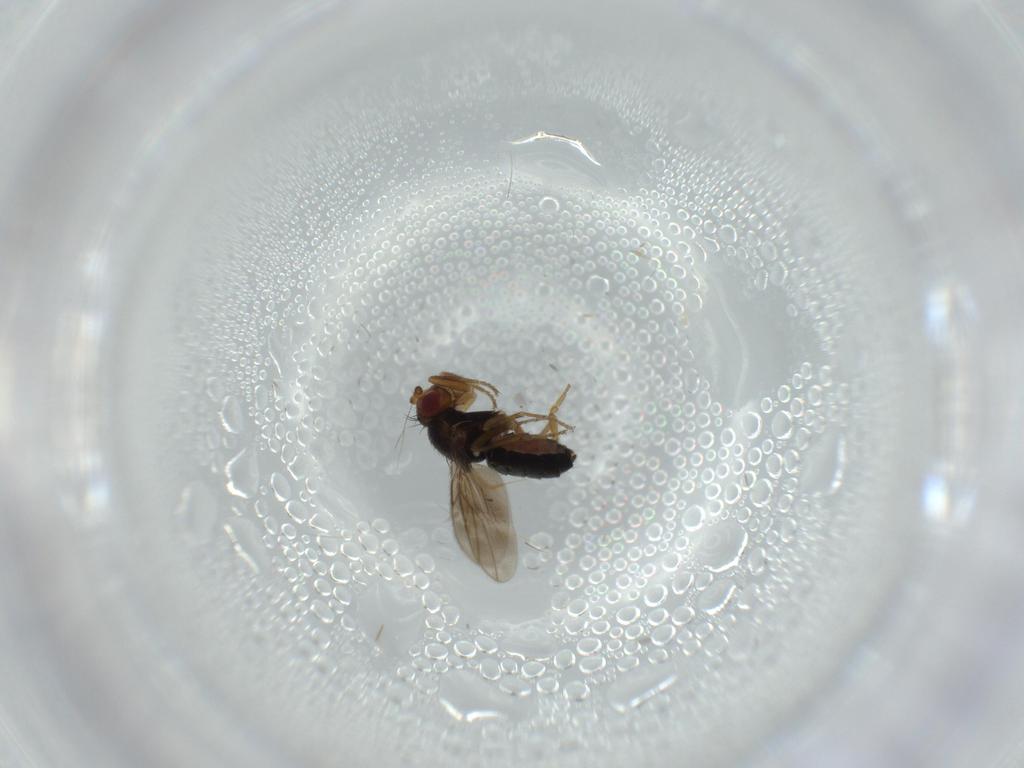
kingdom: Animalia
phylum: Arthropoda
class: Insecta
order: Diptera
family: Sphaeroceridae
